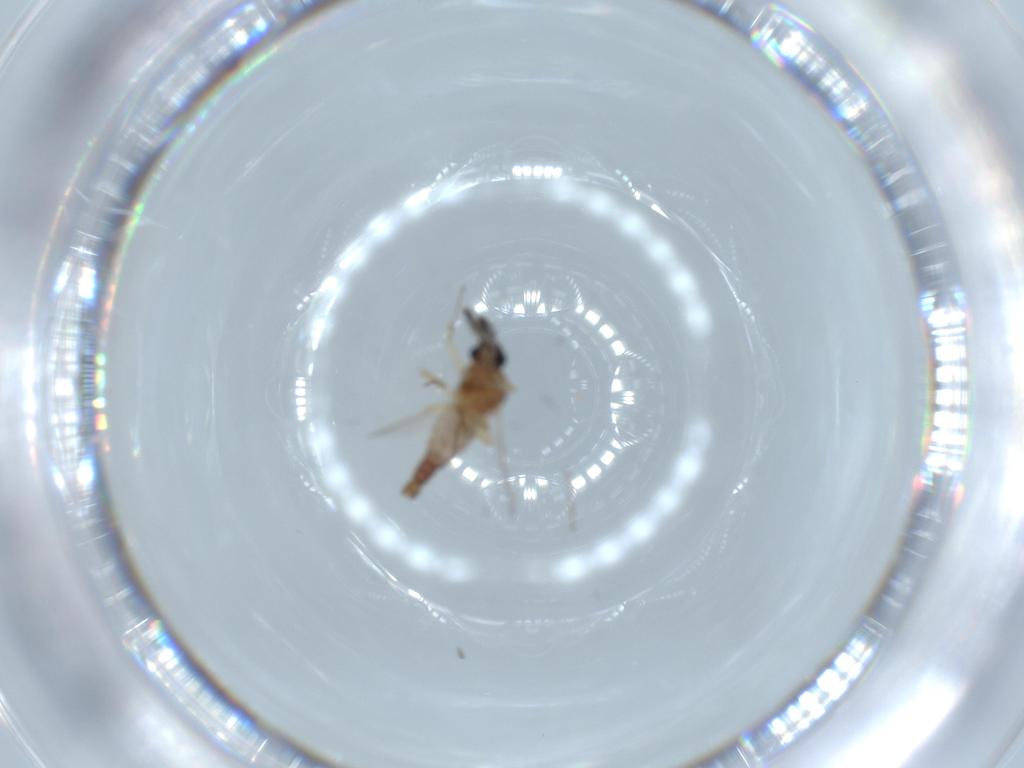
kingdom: Animalia
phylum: Arthropoda
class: Insecta
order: Diptera
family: Ceratopogonidae
